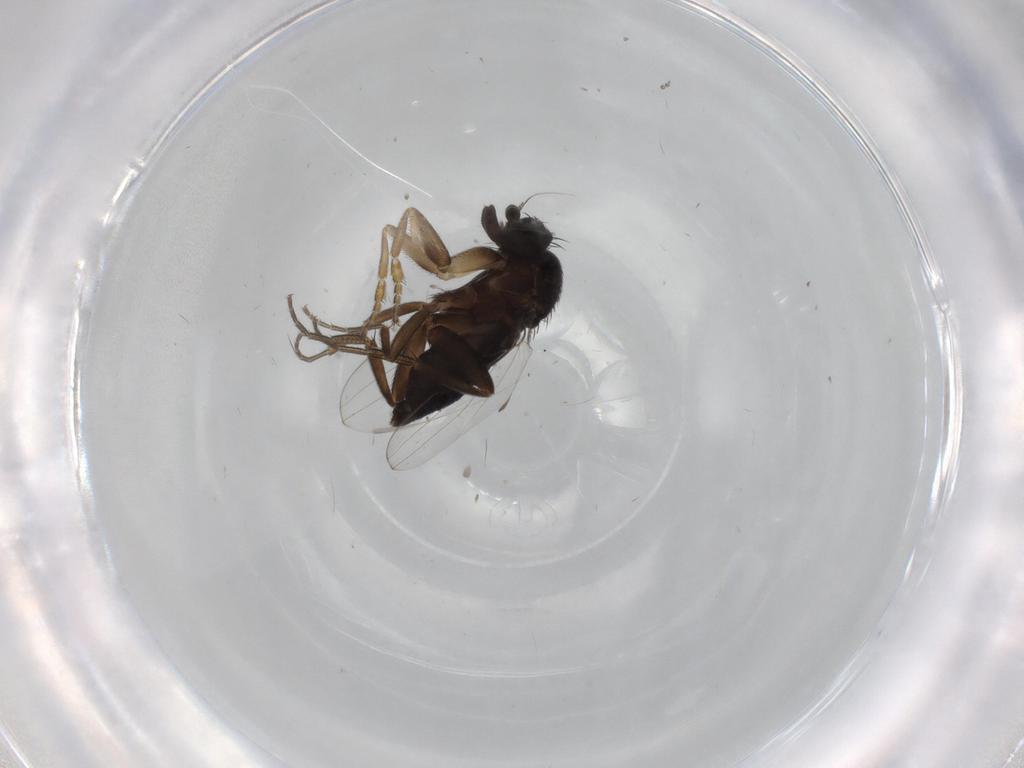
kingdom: Animalia
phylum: Arthropoda
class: Insecta
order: Diptera
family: Phoridae
